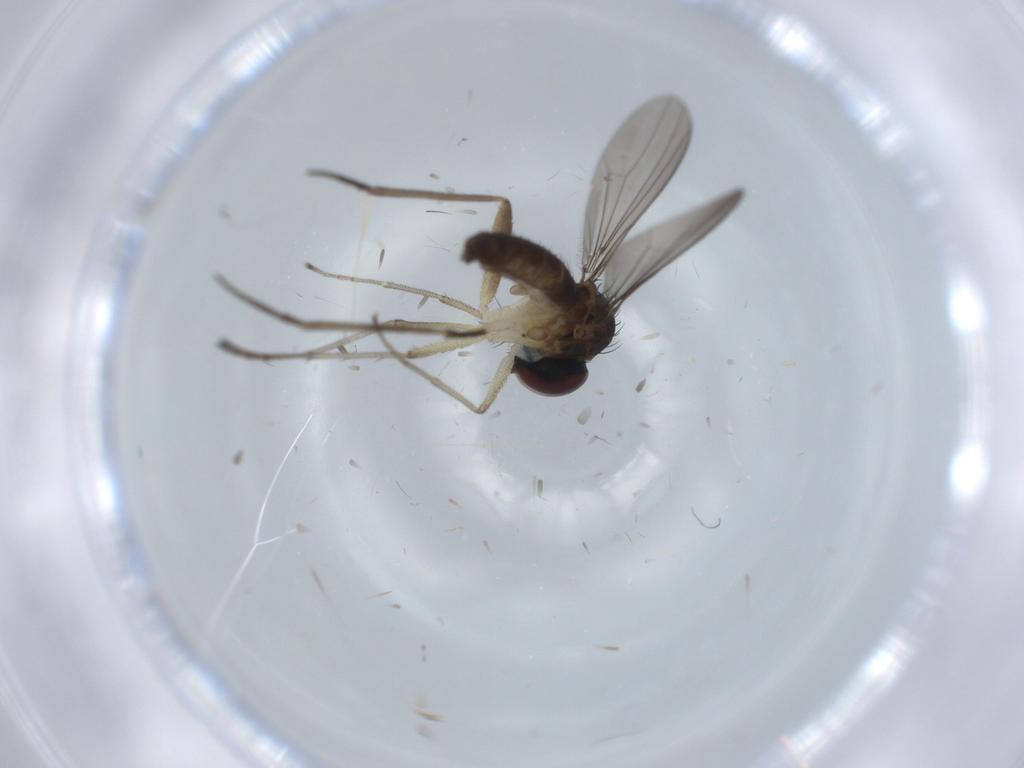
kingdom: Animalia
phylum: Arthropoda
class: Insecta
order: Diptera
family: Dolichopodidae
